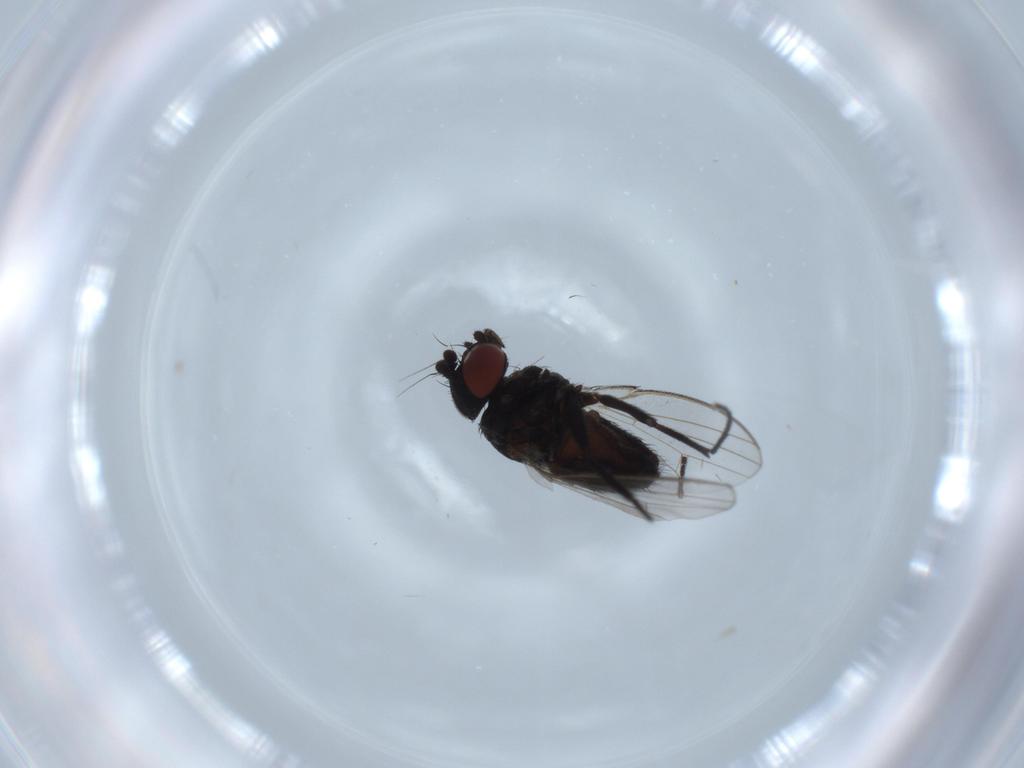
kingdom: Animalia
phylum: Arthropoda
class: Insecta
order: Diptera
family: Milichiidae
